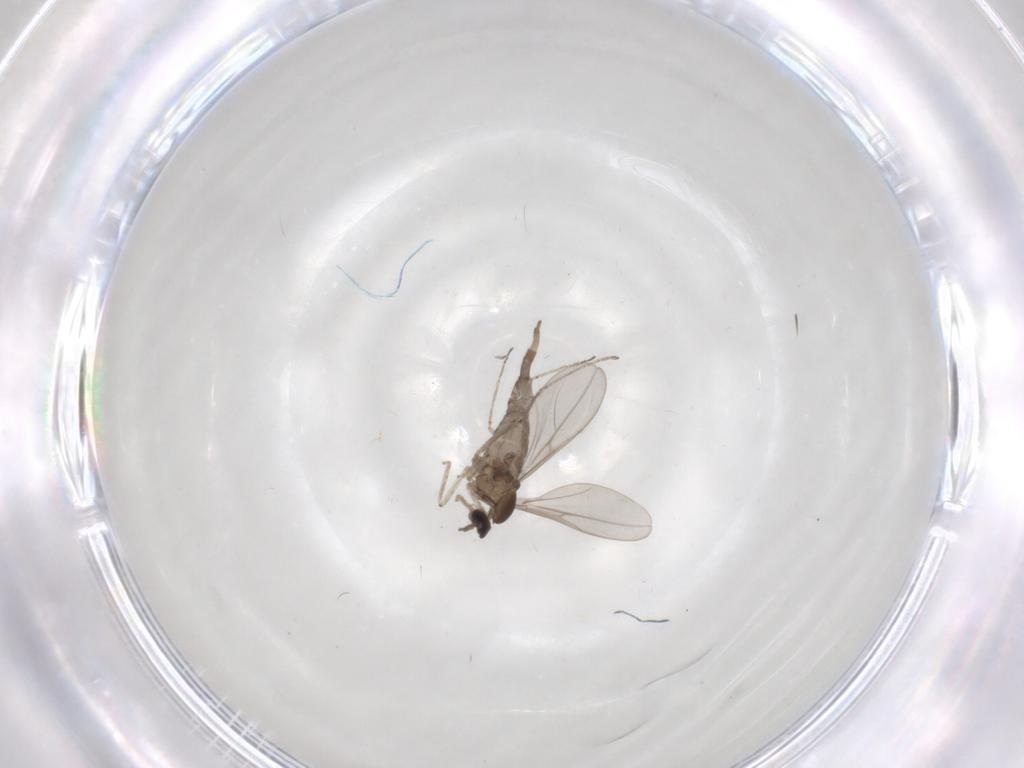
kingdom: Animalia
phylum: Arthropoda
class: Insecta
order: Diptera
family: Cecidomyiidae
